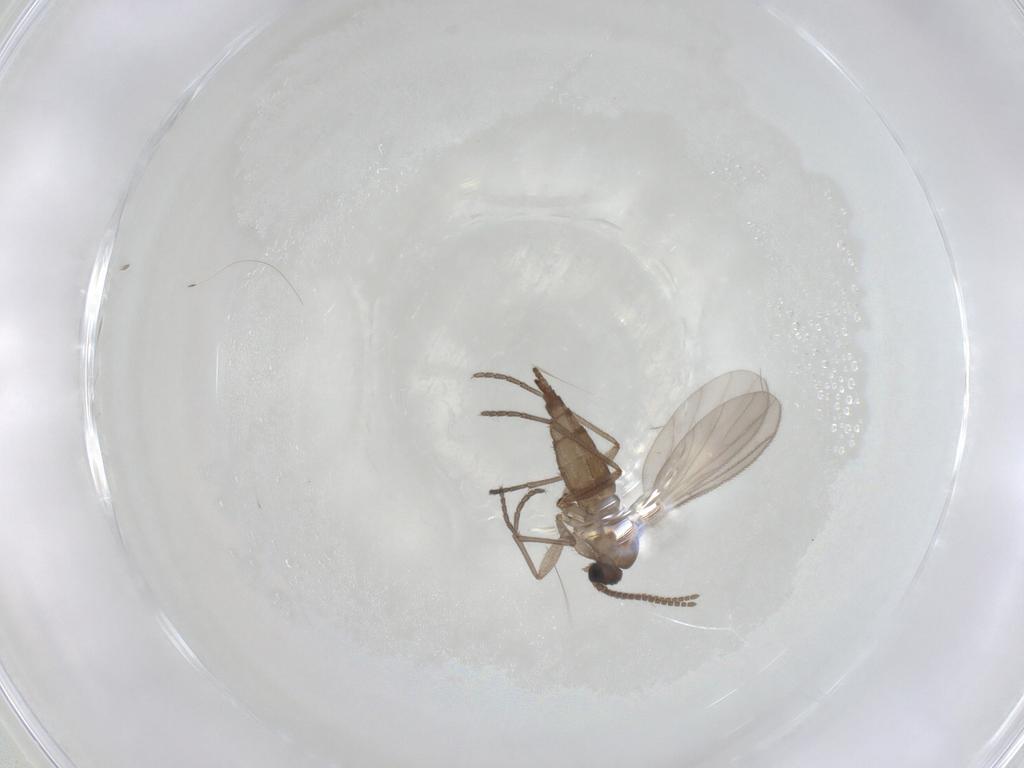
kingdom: Animalia
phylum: Arthropoda
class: Insecta
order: Diptera
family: Sciaridae
